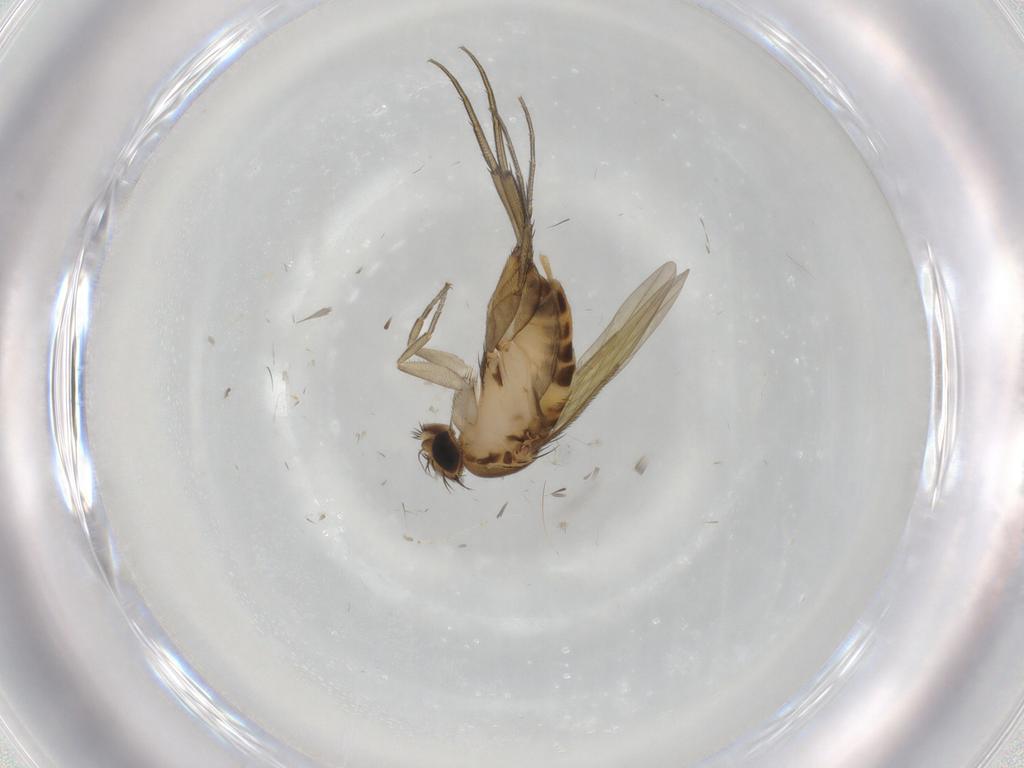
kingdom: Animalia
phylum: Arthropoda
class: Insecta
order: Diptera
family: Phoridae
